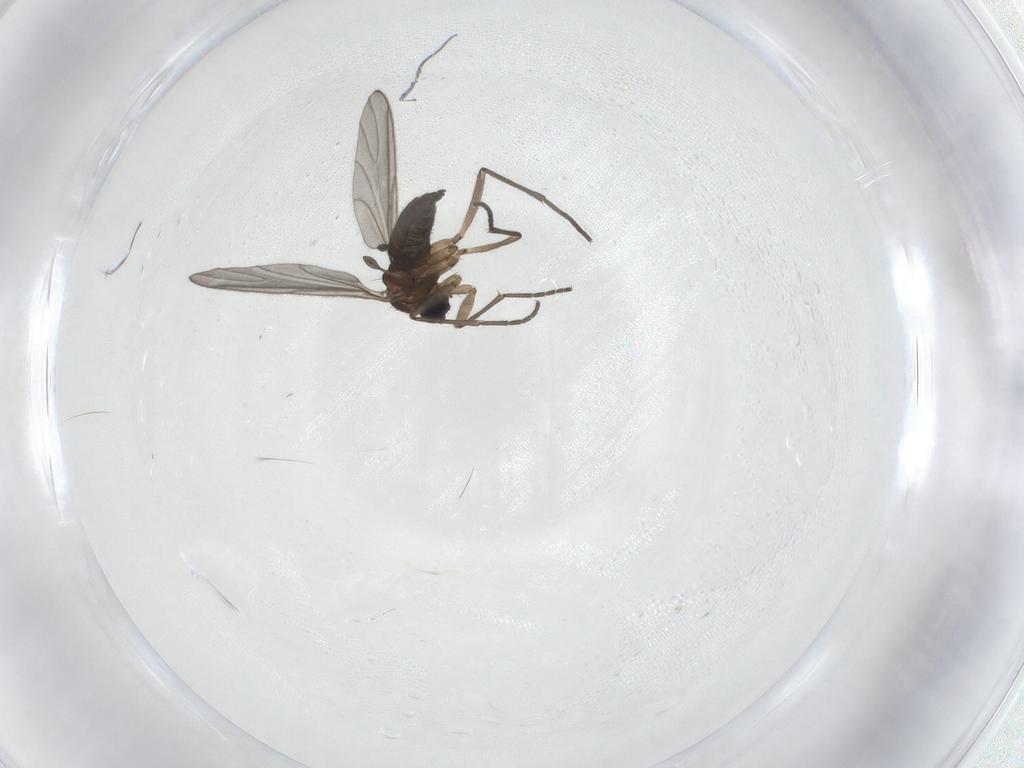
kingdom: Animalia
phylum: Arthropoda
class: Insecta
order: Diptera
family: Sciaridae
